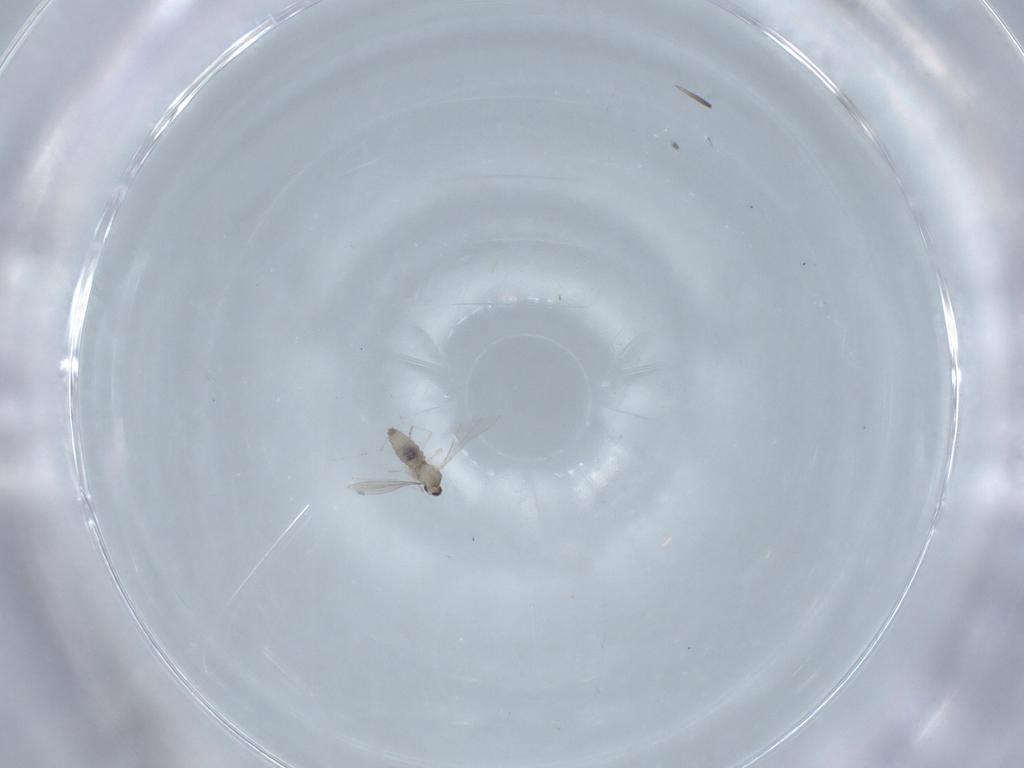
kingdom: Animalia
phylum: Arthropoda
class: Insecta
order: Diptera
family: Cecidomyiidae
